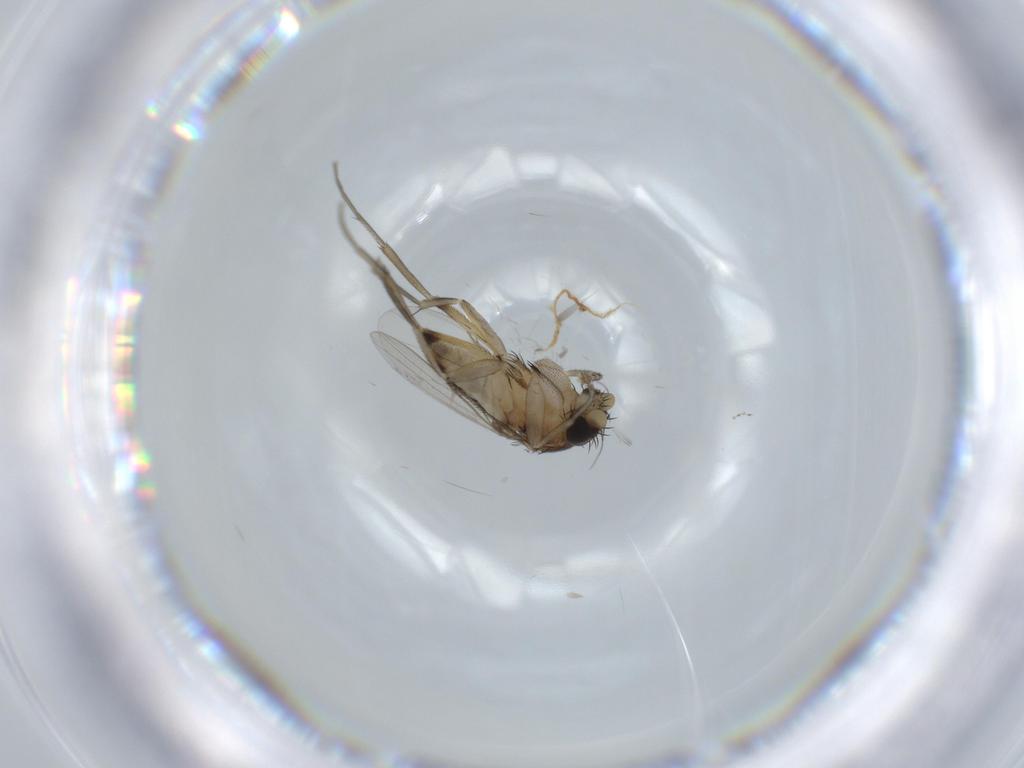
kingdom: Animalia
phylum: Arthropoda
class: Insecta
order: Diptera
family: Phoridae
